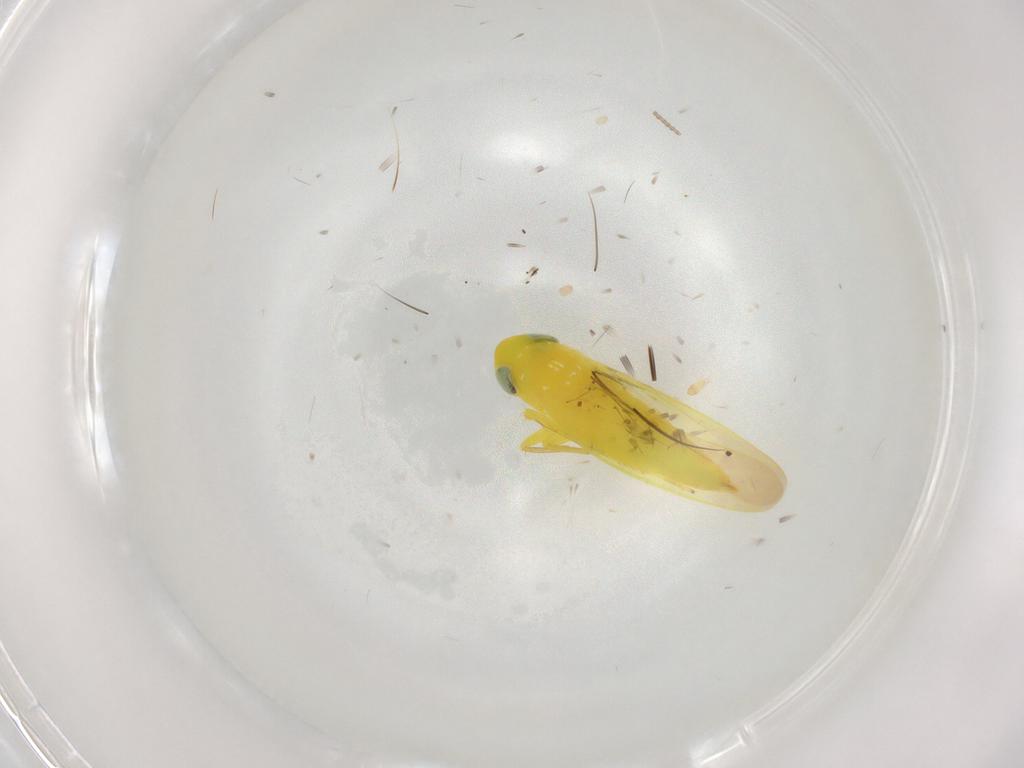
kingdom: Animalia
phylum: Arthropoda
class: Insecta
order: Hemiptera
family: Cicadellidae
